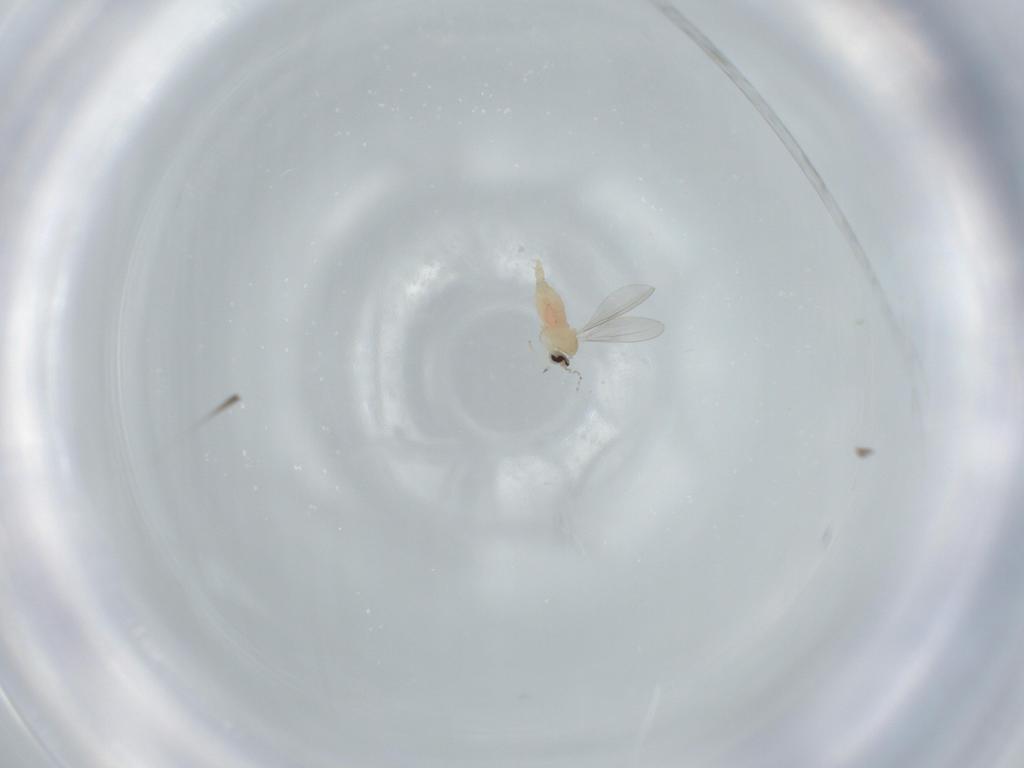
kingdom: Animalia
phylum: Arthropoda
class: Insecta
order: Diptera
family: Cecidomyiidae
